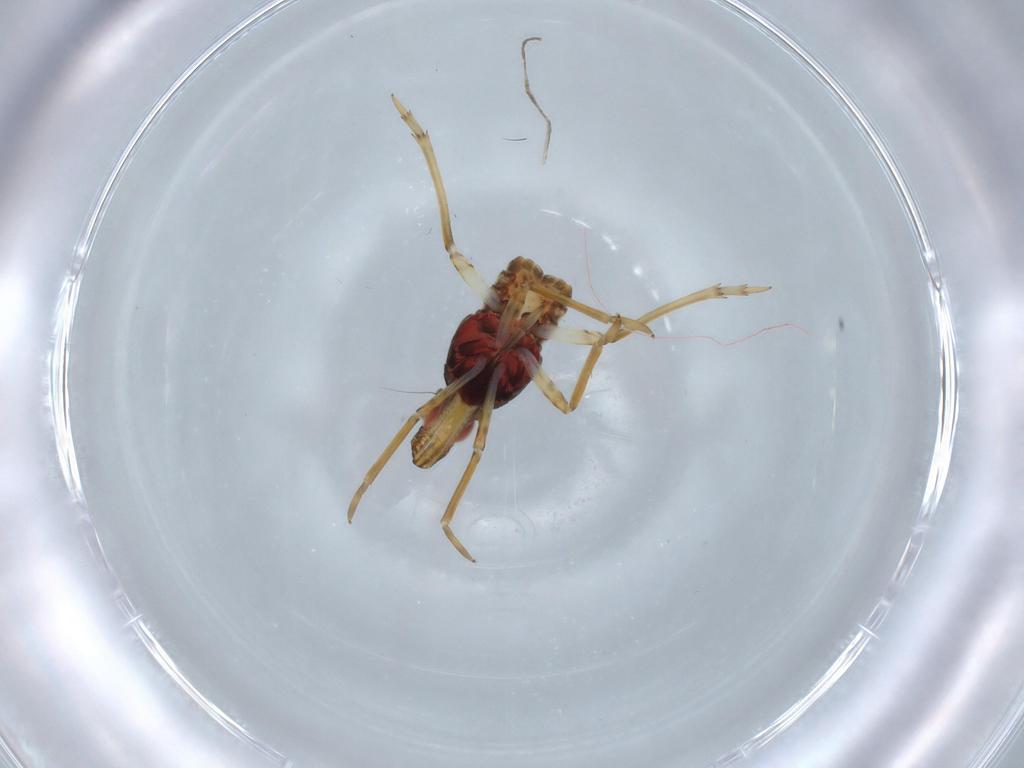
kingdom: Animalia
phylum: Arthropoda
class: Insecta
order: Hemiptera
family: Fulgoroidea_incertae_sedis
